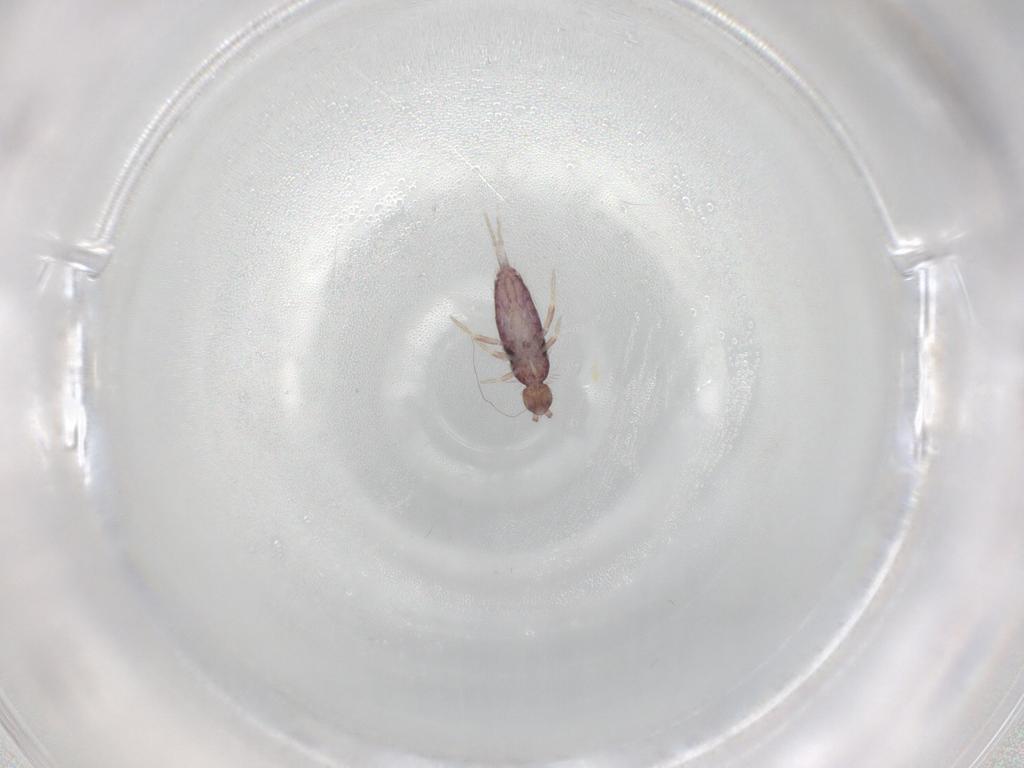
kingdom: Animalia
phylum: Arthropoda
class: Collembola
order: Entomobryomorpha
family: Entomobryidae
